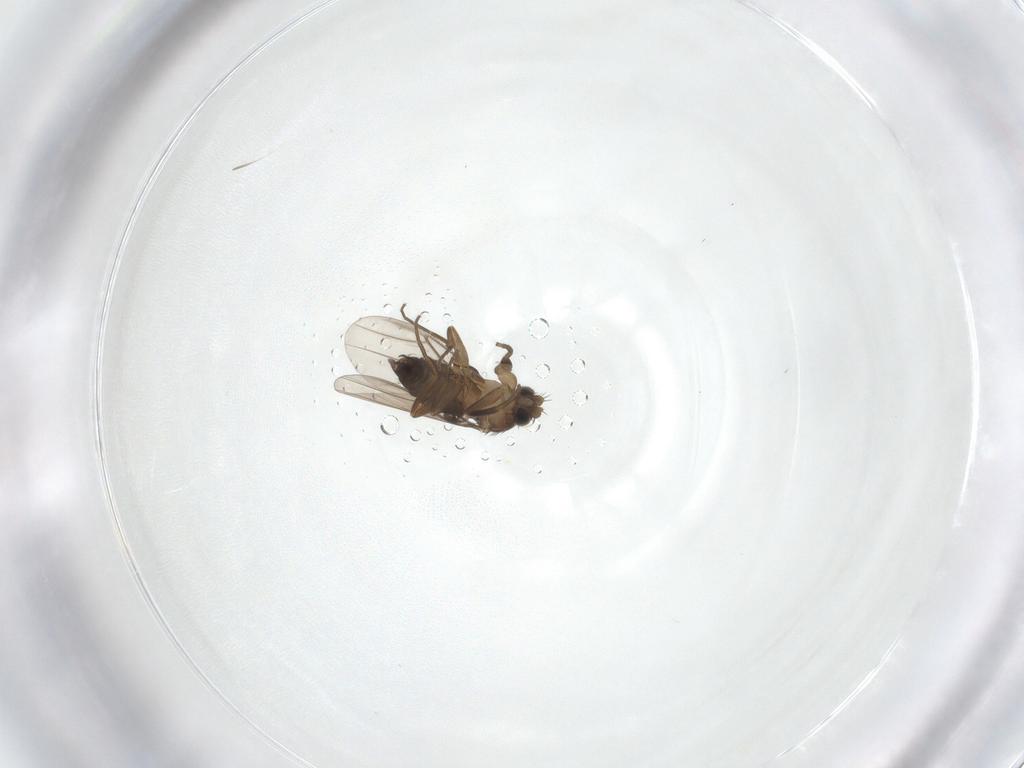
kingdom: Animalia
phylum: Arthropoda
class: Insecta
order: Diptera
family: Phoridae
